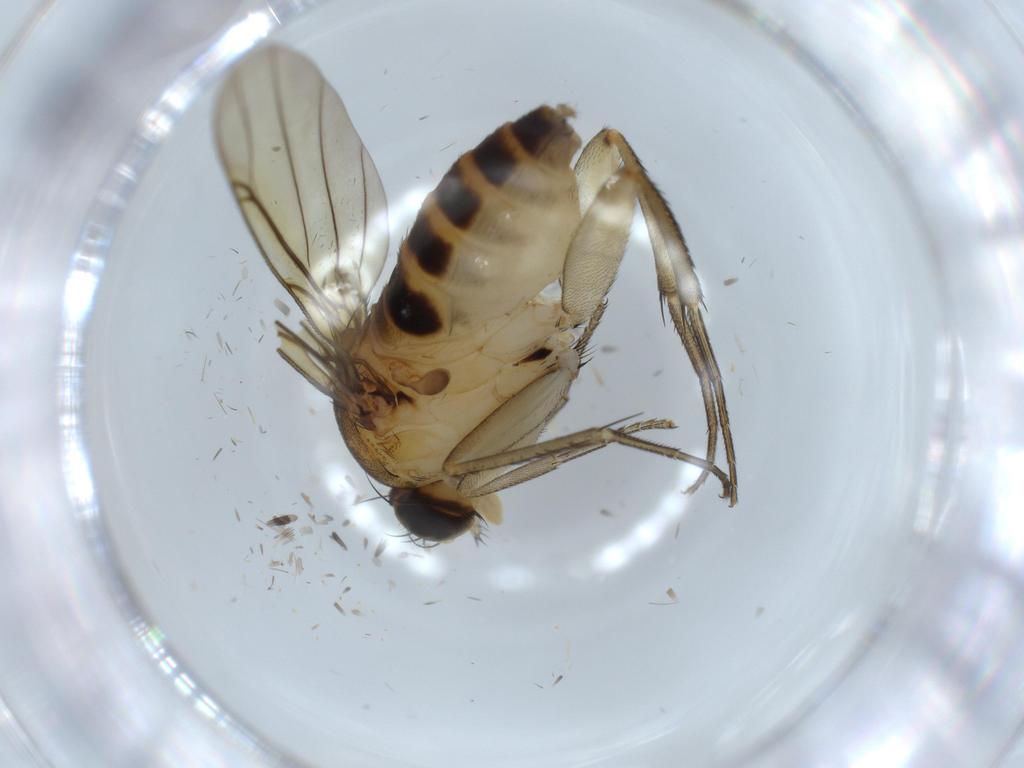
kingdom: Animalia
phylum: Arthropoda
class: Insecta
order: Diptera
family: Phoridae
